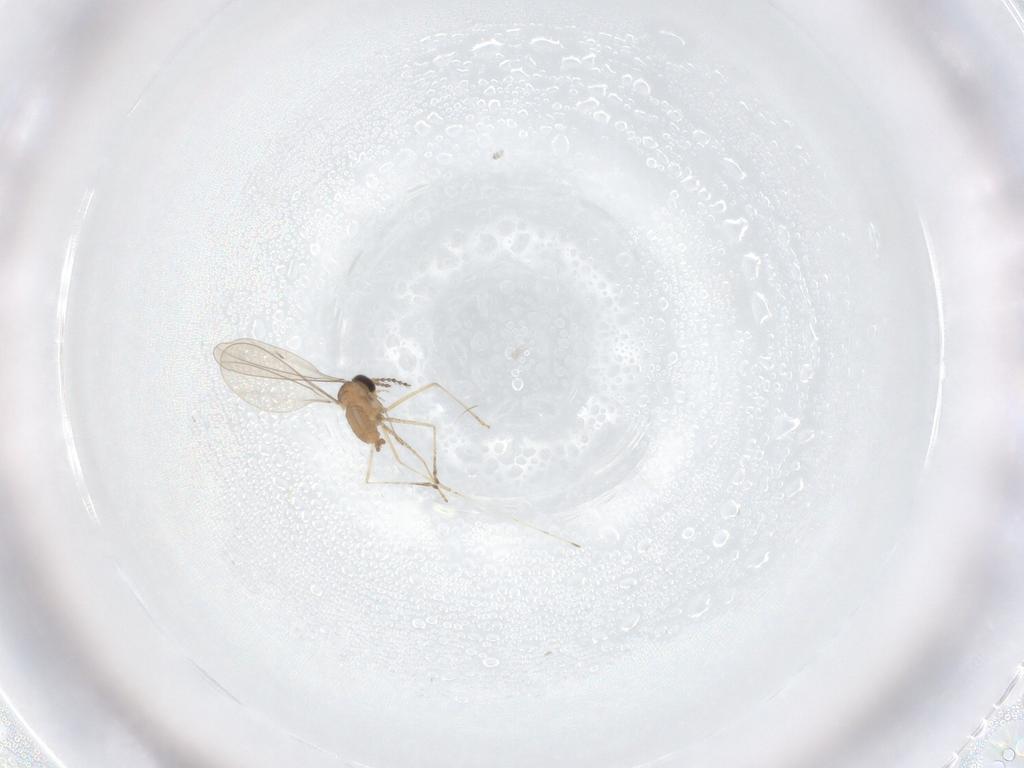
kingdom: Animalia
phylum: Arthropoda
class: Insecta
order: Diptera
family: Cecidomyiidae
